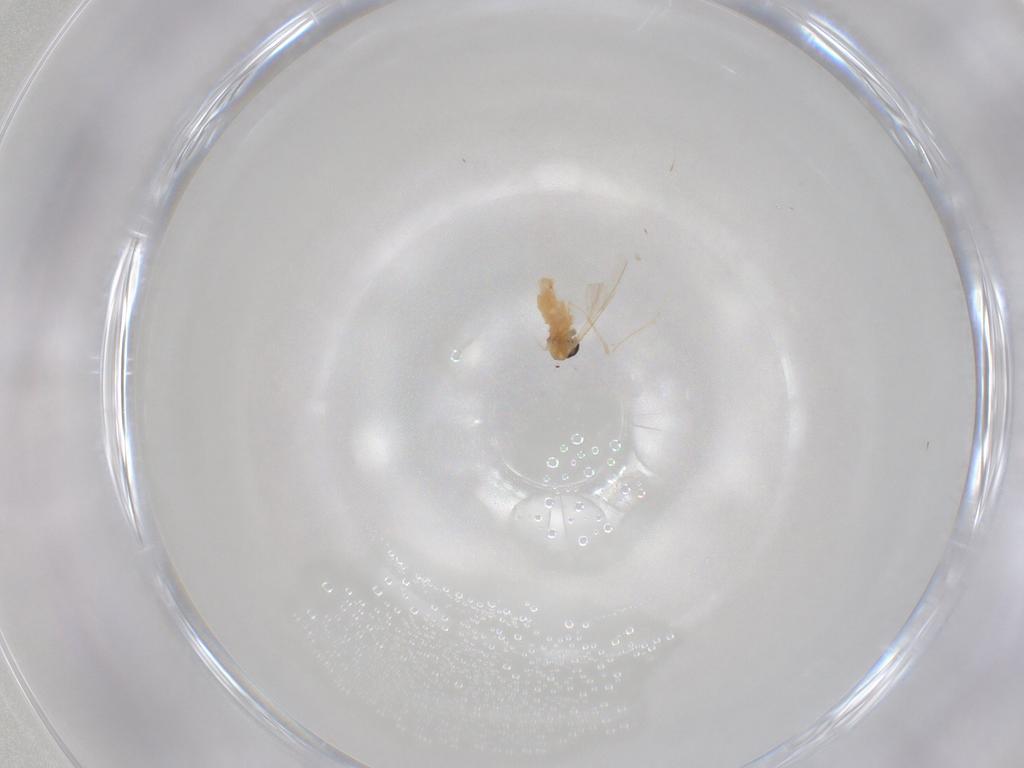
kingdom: Animalia
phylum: Arthropoda
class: Insecta
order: Diptera
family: Cecidomyiidae
